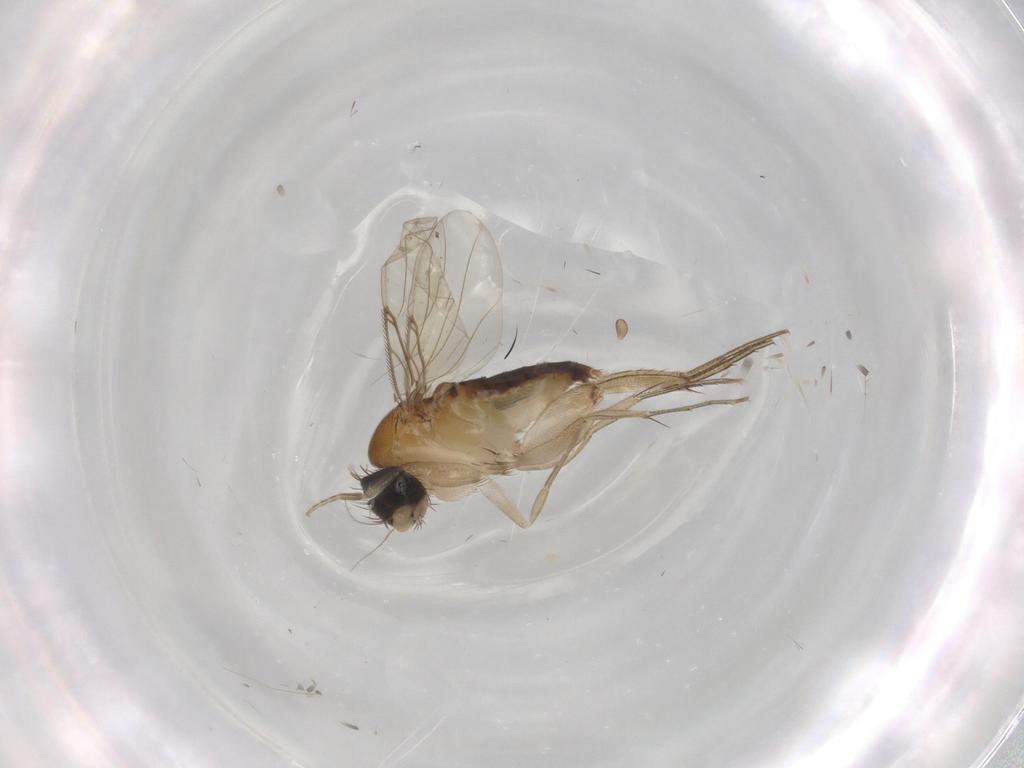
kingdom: Animalia
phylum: Arthropoda
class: Insecta
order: Diptera
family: Phoridae
